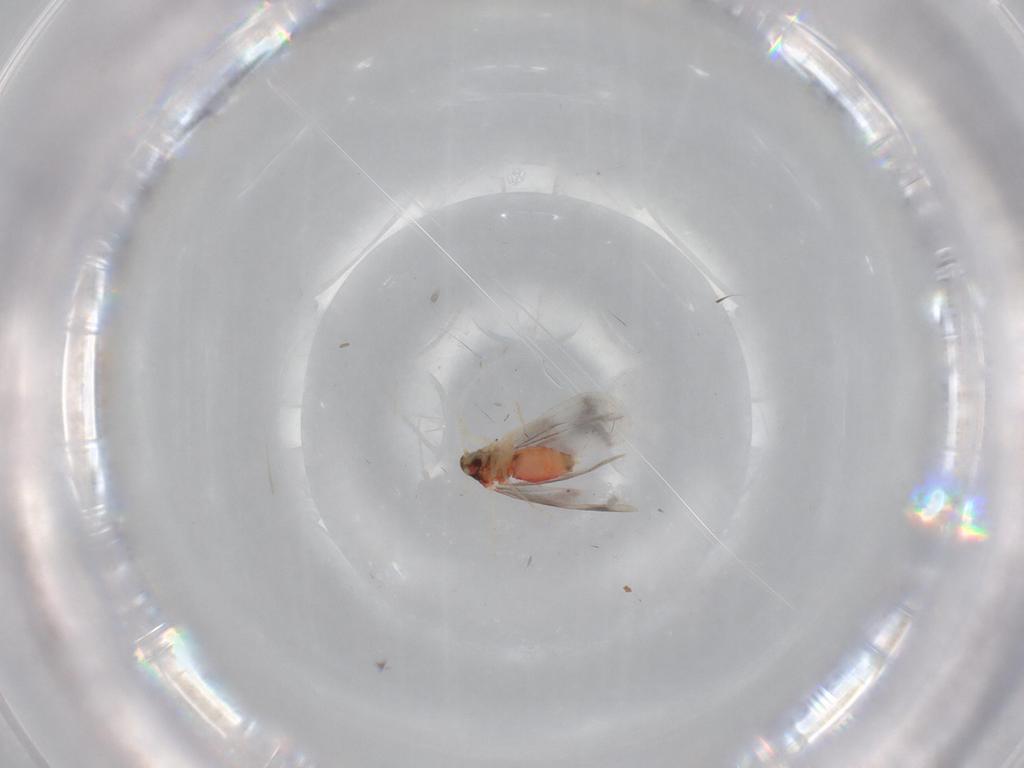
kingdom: Animalia
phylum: Arthropoda
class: Insecta
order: Hemiptera
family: Aleyrodidae
